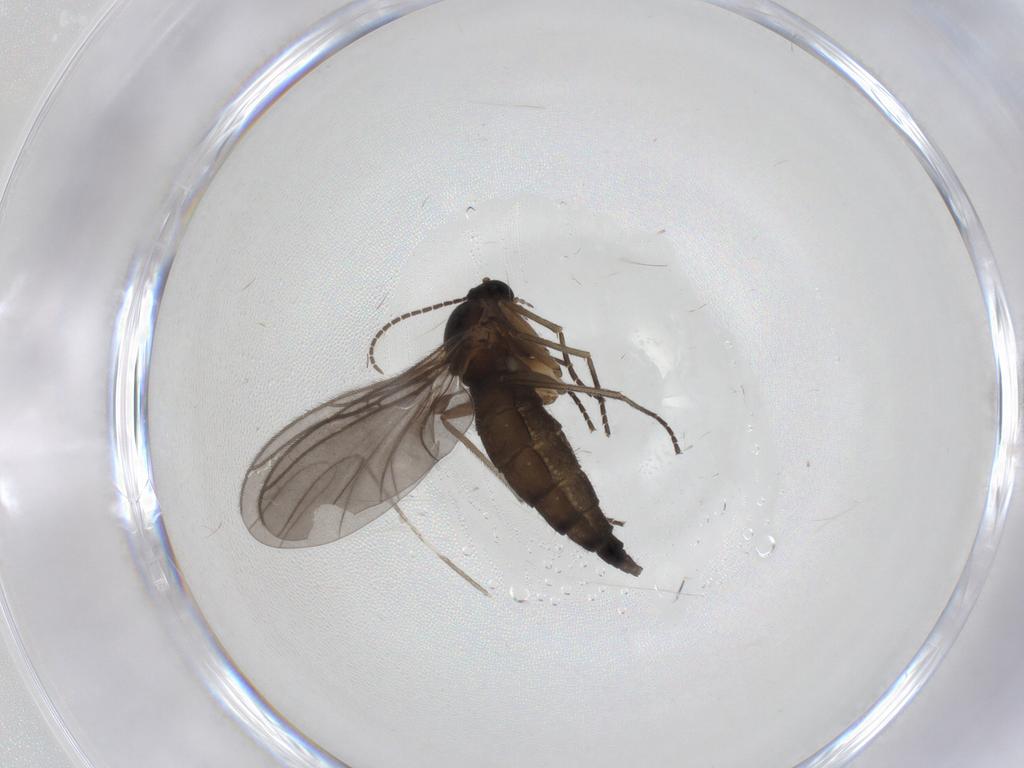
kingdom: Animalia
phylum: Arthropoda
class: Insecta
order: Diptera
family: Sciaridae
